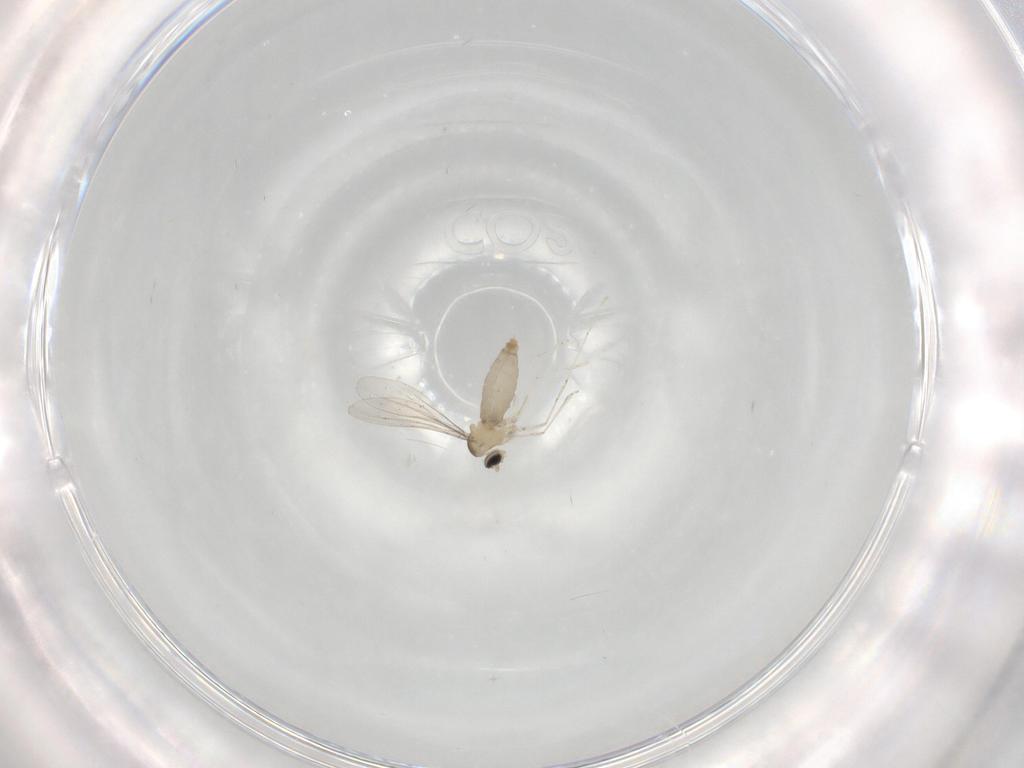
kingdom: Animalia
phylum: Arthropoda
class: Insecta
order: Diptera
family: Cecidomyiidae
